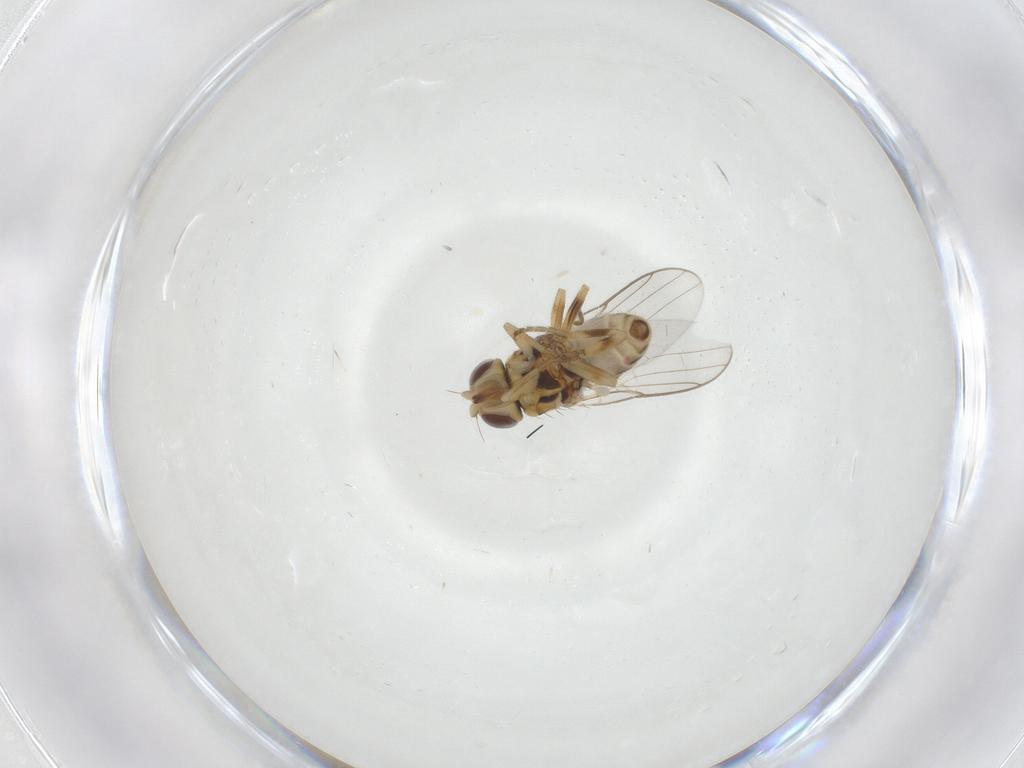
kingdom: Animalia
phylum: Arthropoda
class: Insecta
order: Diptera
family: Chloropidae
